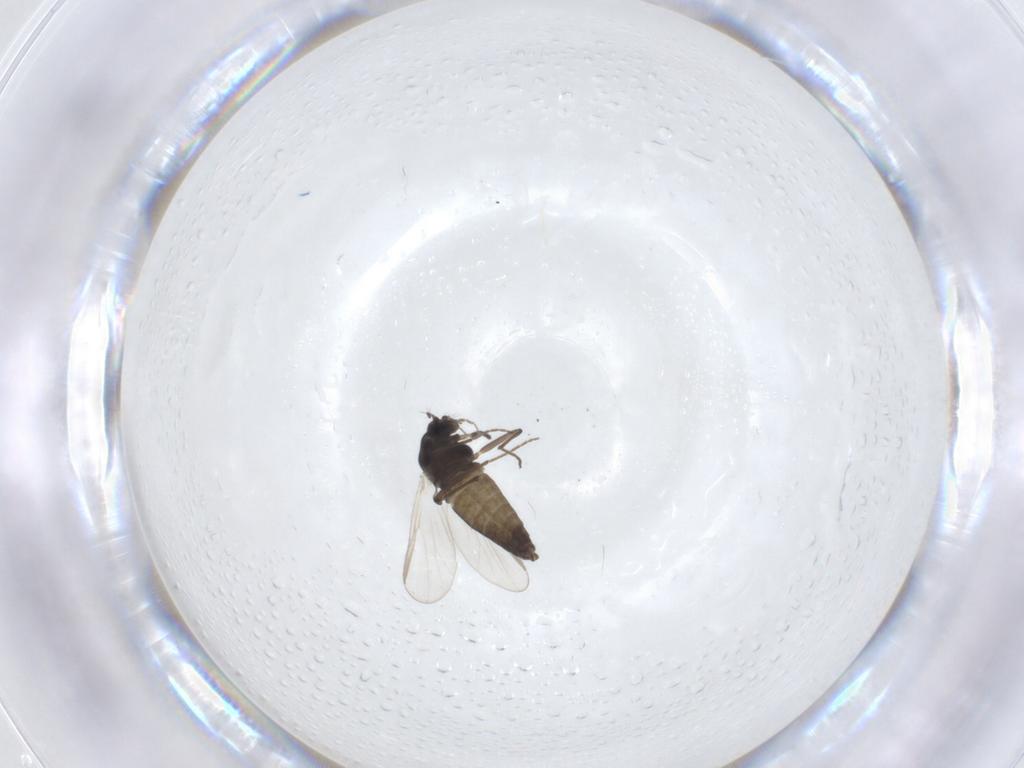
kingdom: Animalia
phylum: Arthropoda
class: Insecta
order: Diptera
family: Chironomidae
